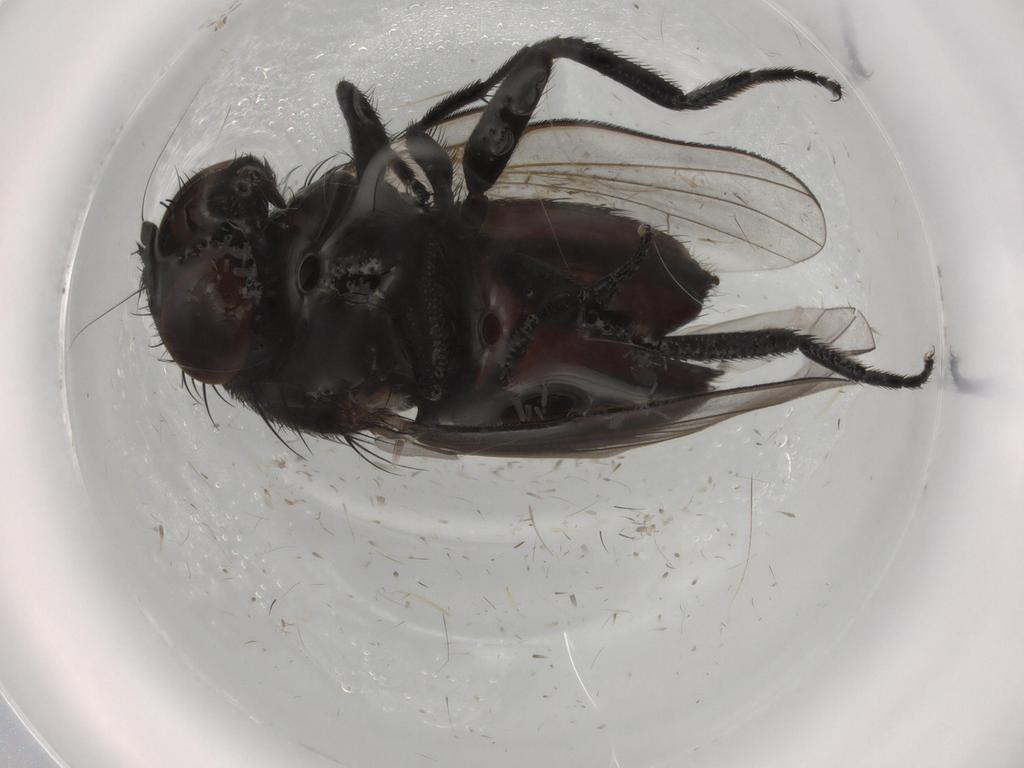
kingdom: Animalia
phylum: Arthropoda
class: Insecta
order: Diptera
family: Milichiidae
